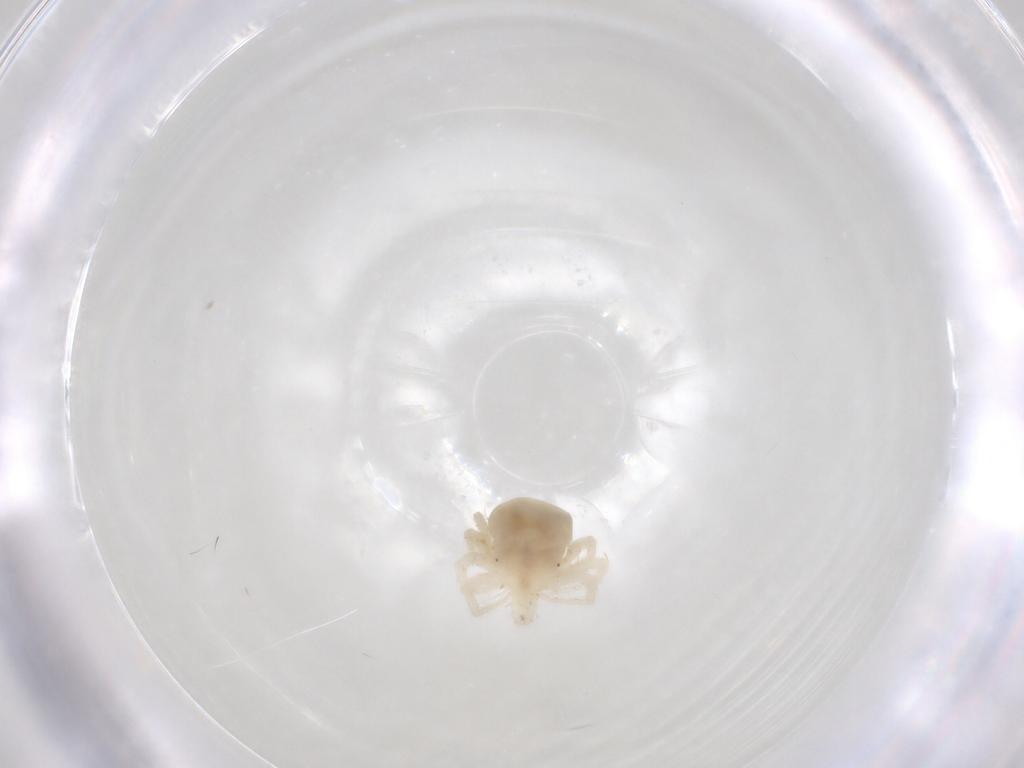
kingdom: Animalia
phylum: Arthropoda
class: Arachnida
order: Trombidiformes
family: Anystidae
